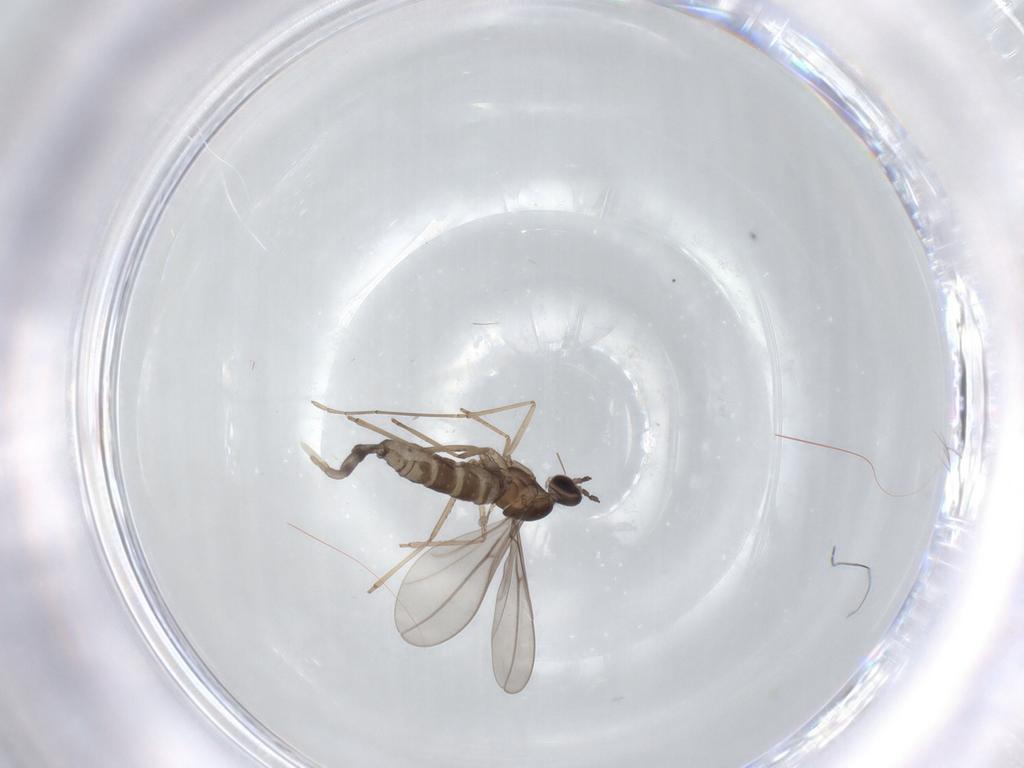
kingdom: Animalia
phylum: Arthropoda
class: Insecta
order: Diptera
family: Cecidomyiidae
